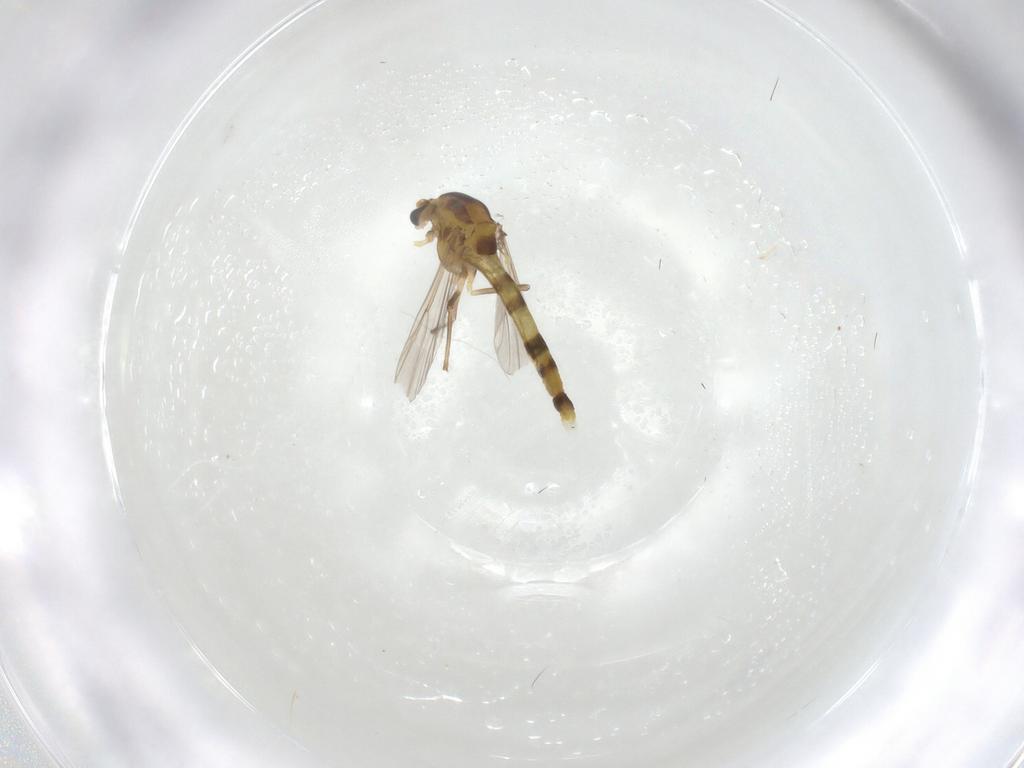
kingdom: Animalia
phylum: Arthropoda
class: Insecta
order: Diptera
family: Chironomidae
